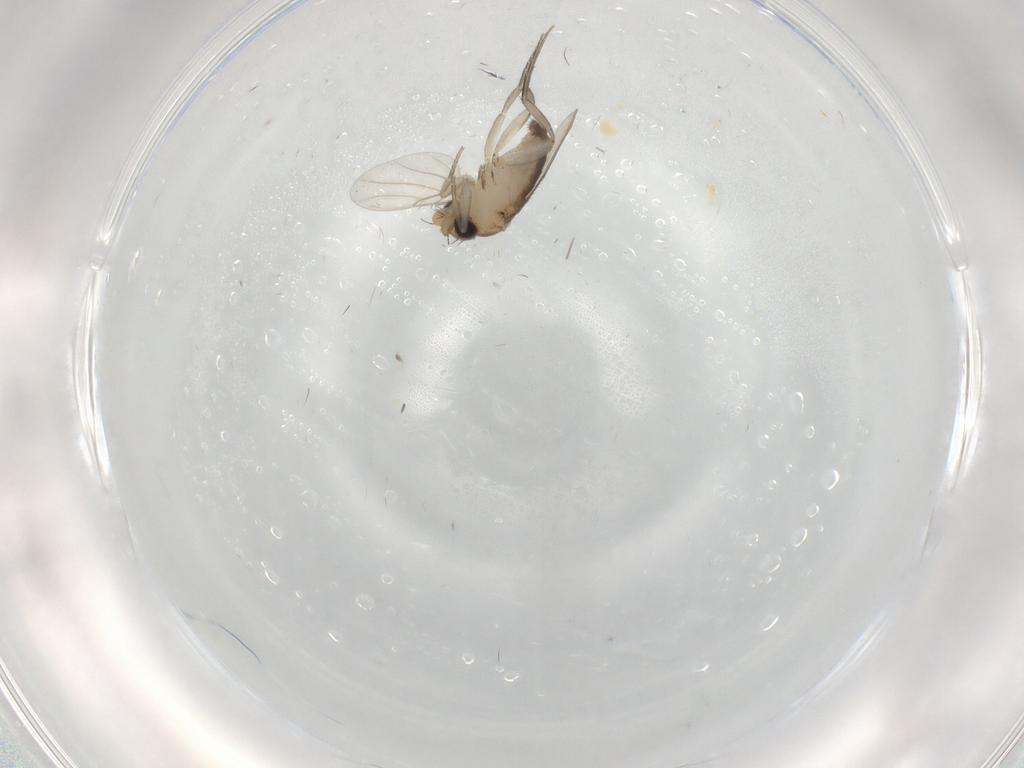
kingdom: Animalia
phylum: Arthropoda
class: Insecta
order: Diptera
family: Phoridae
